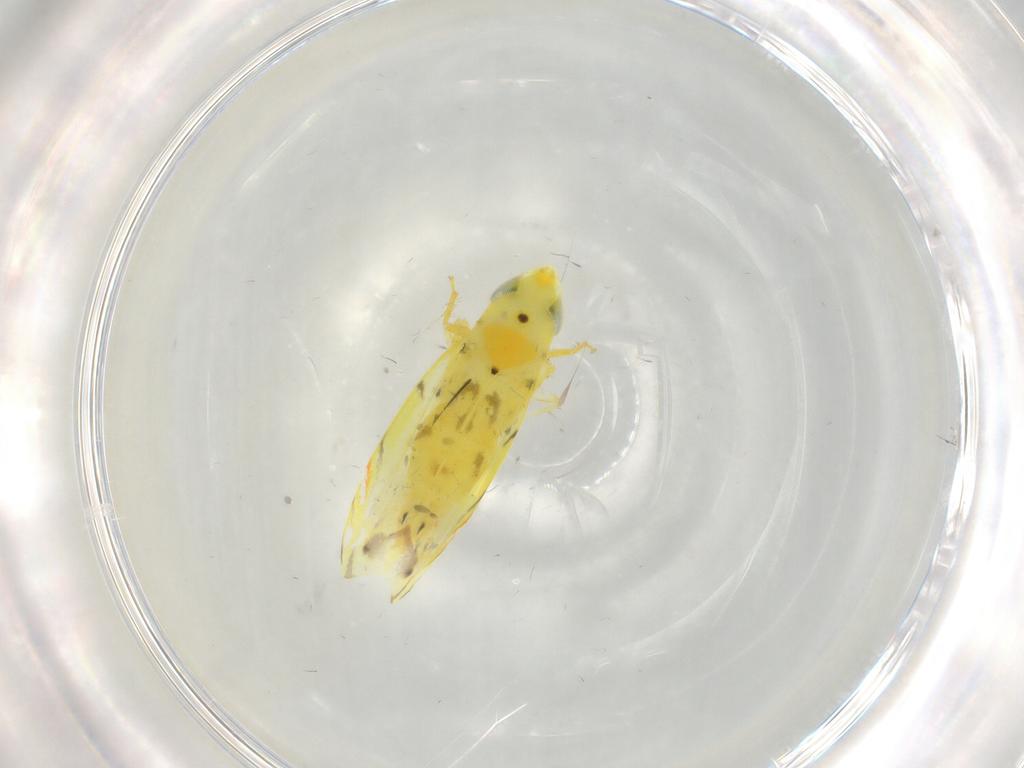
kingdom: Animalia
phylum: Arthropoda
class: Insecta
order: Hemiptera
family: Cicadellidae
